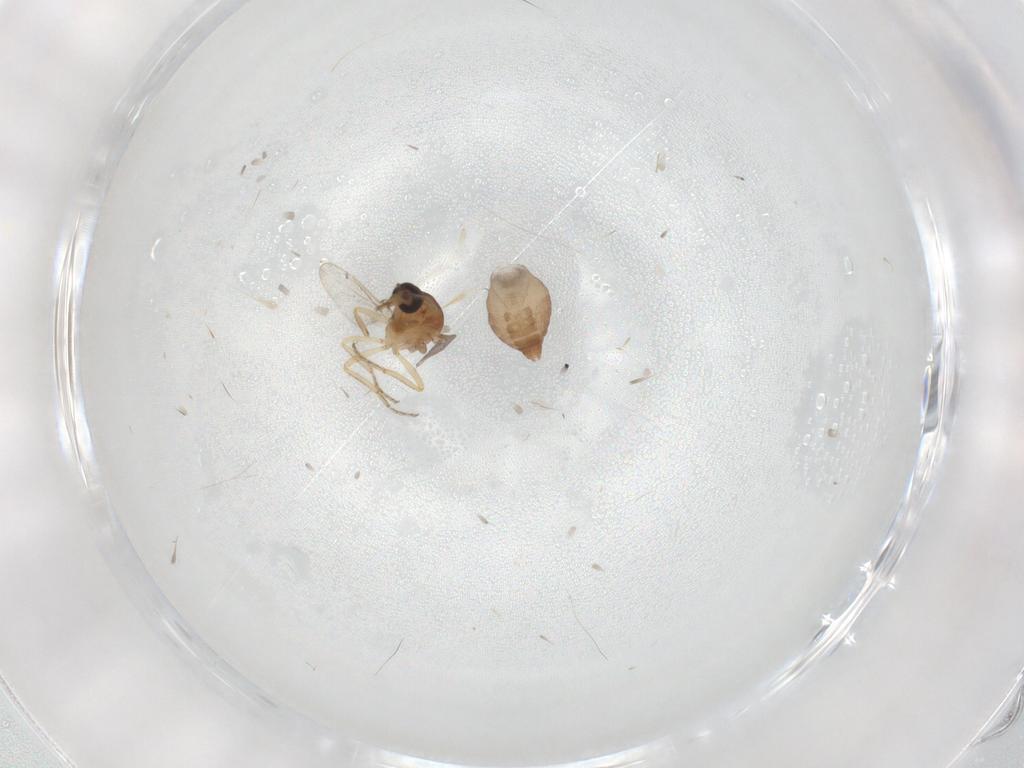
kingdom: Animalia
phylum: Arthropoda
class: Insecta
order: Diptera
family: Ceratopogonidae
